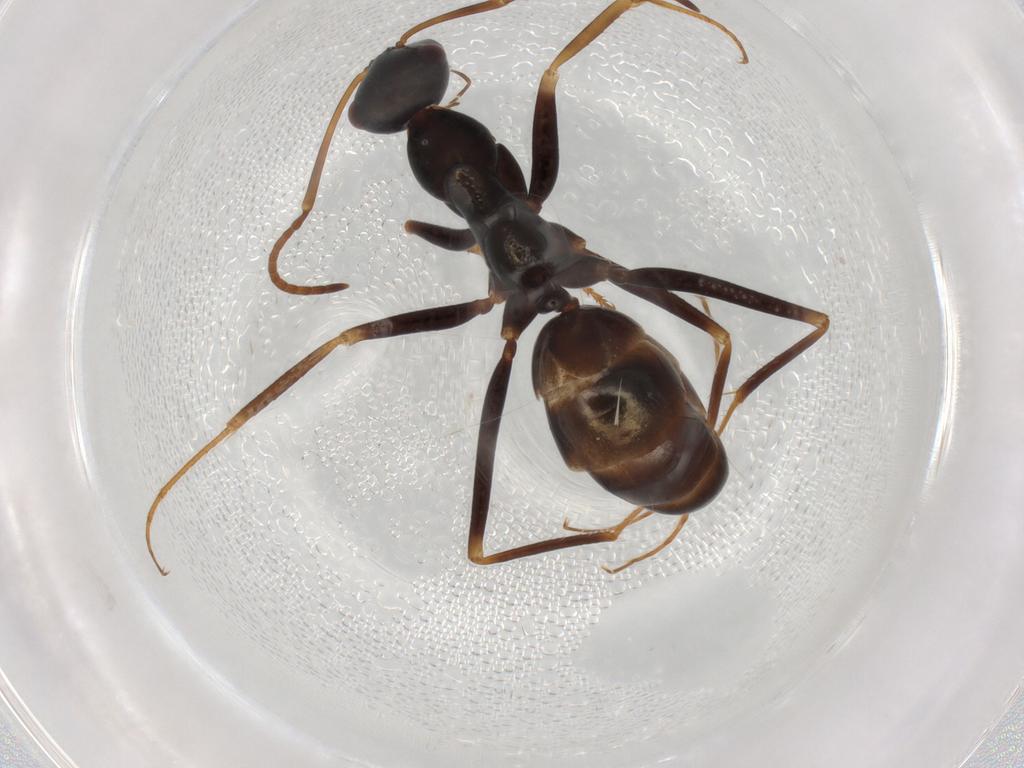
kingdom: Animalia
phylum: Arthropoda
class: Insecta
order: Hymenoptera
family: Formicidae
